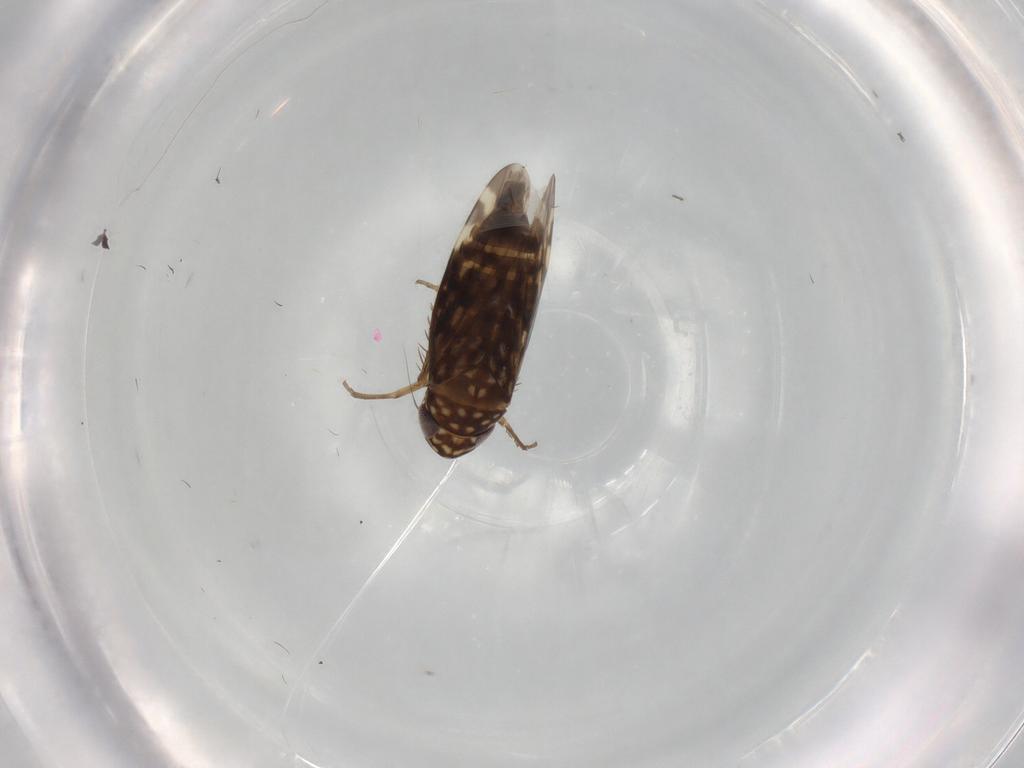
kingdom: Animalia
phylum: Arthropoda
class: Insecta
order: Hemiptera
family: Cicadellidae
